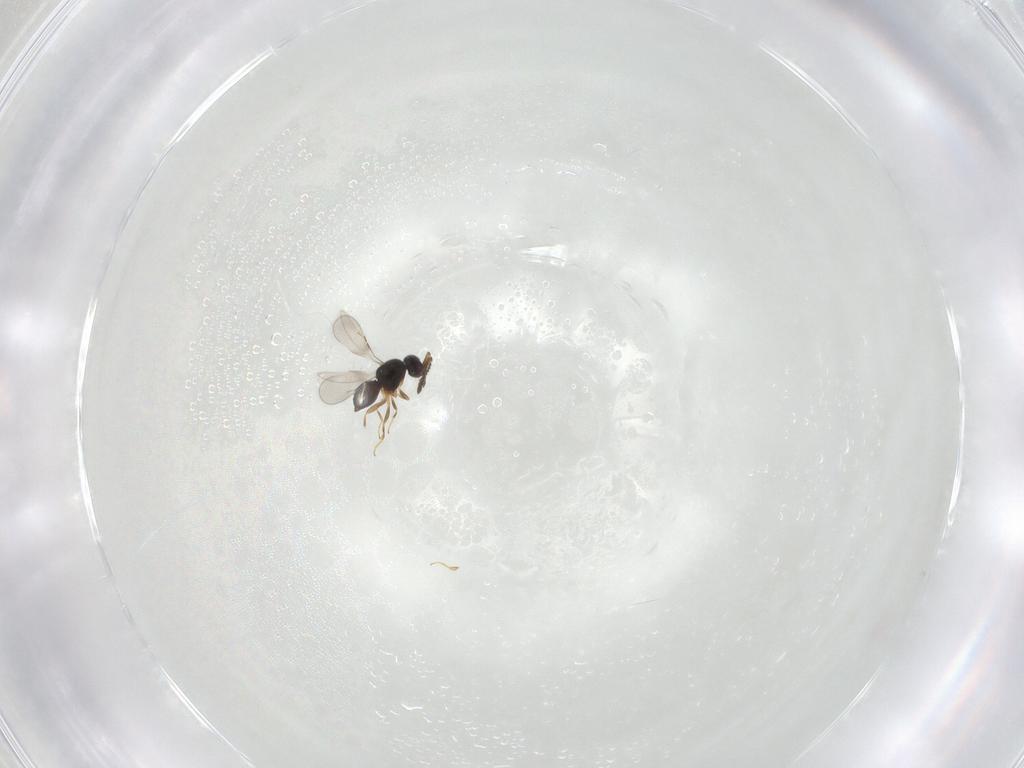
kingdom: Animalia
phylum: Arthropoda
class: Insecta
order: Hymenoptera
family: Ceraphronidae
